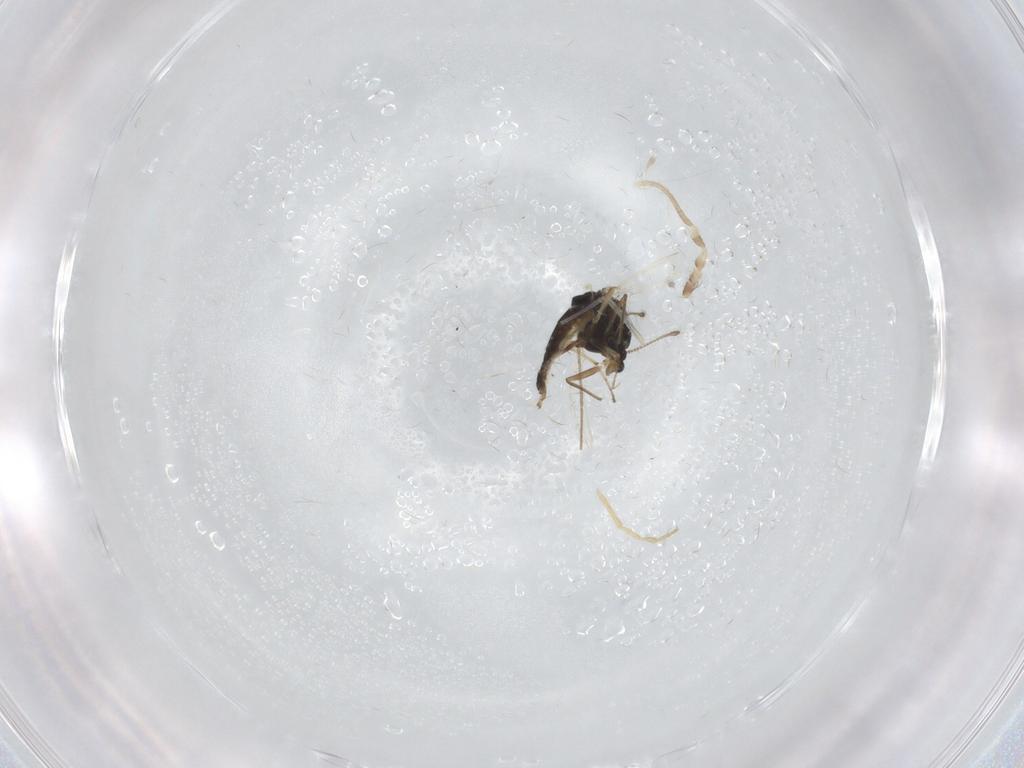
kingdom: Animalia
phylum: Arthropoda
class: Insecta
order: Diptera
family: Chironomidae
